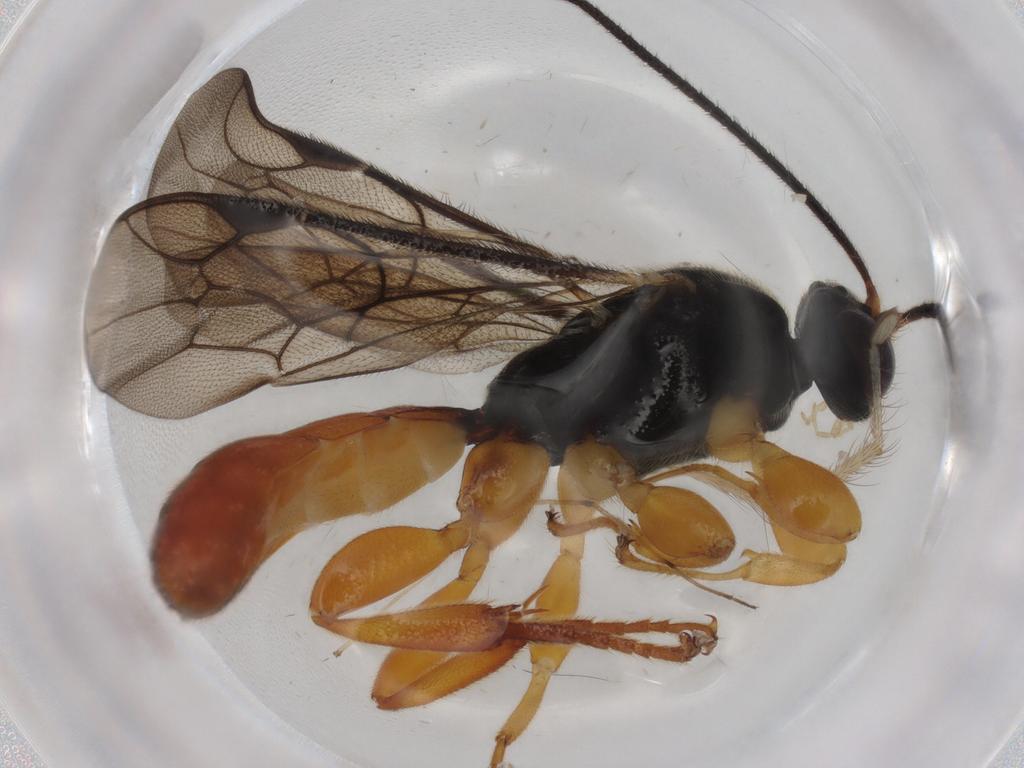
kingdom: Animalia
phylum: Arthropoda
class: Insecta
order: Hymenoptera
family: Ichneumonidae
